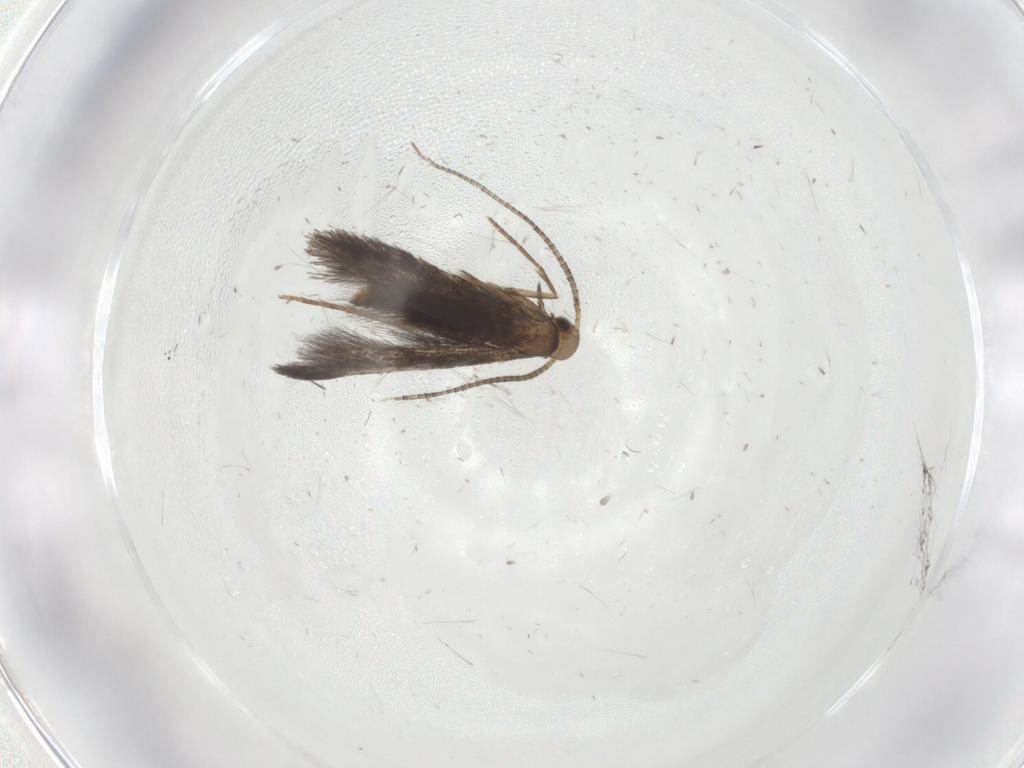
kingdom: Animalia
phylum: Arthropoda
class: Insecta
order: Lepidoptera
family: Gracillariidae
